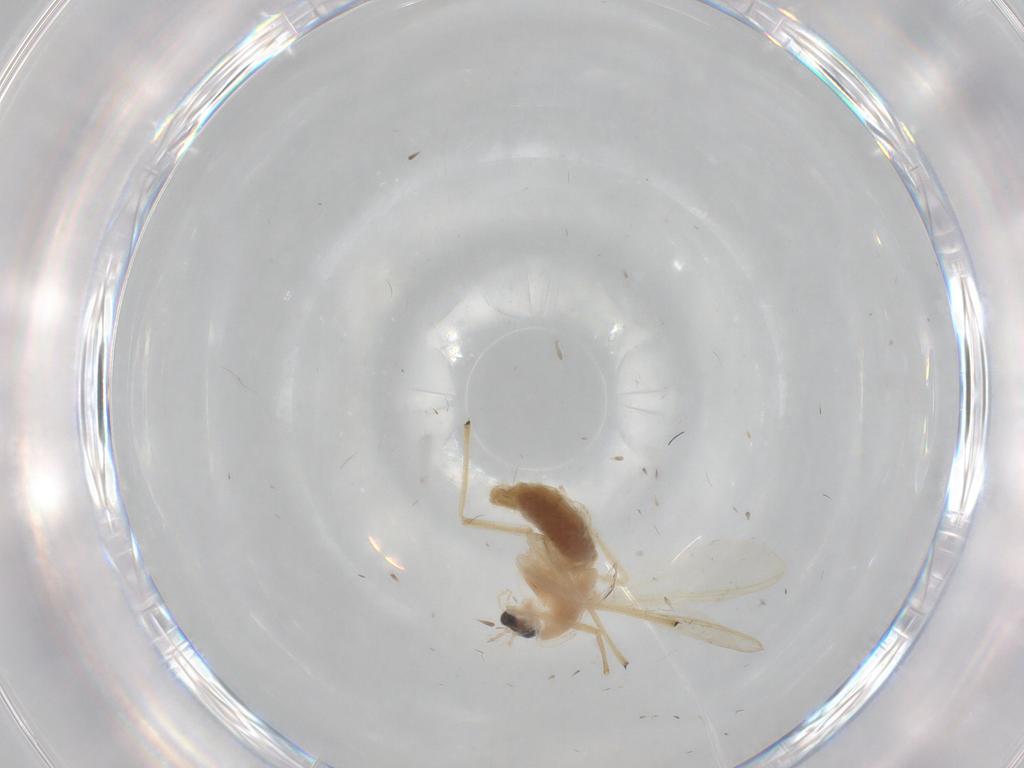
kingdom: Animalia
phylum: Arthropoda
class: Insecta
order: Diptera
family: Chironomidae
